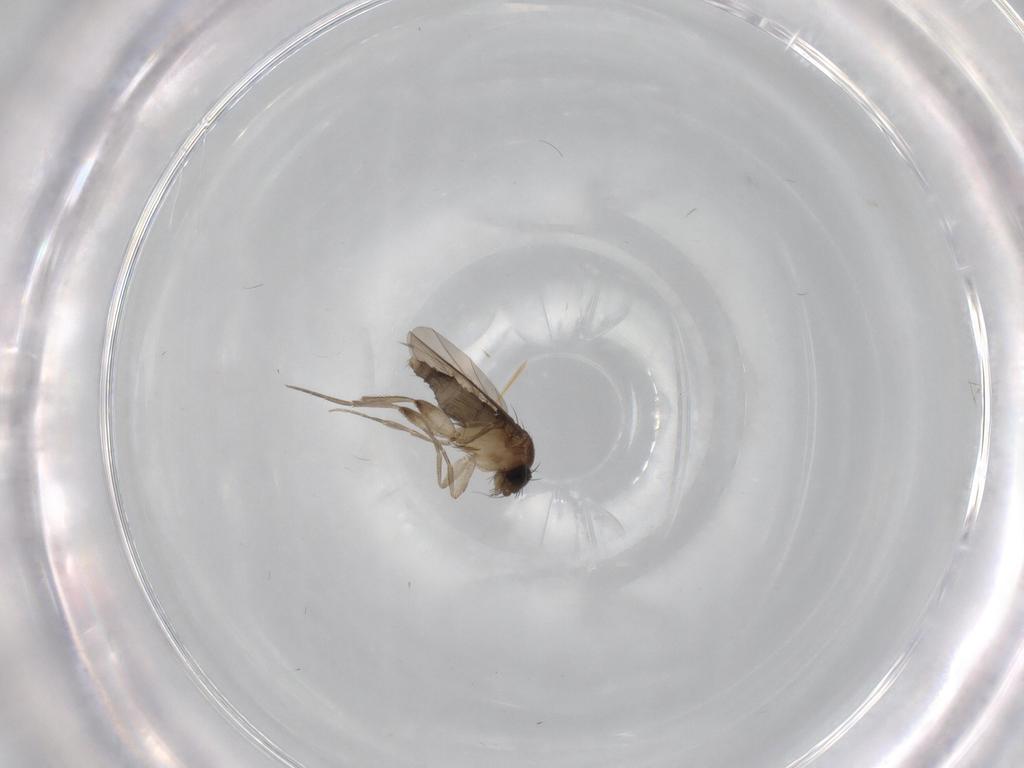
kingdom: Animalia
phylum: Arthropoda
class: Insecta
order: Diptera
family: Phoridae
